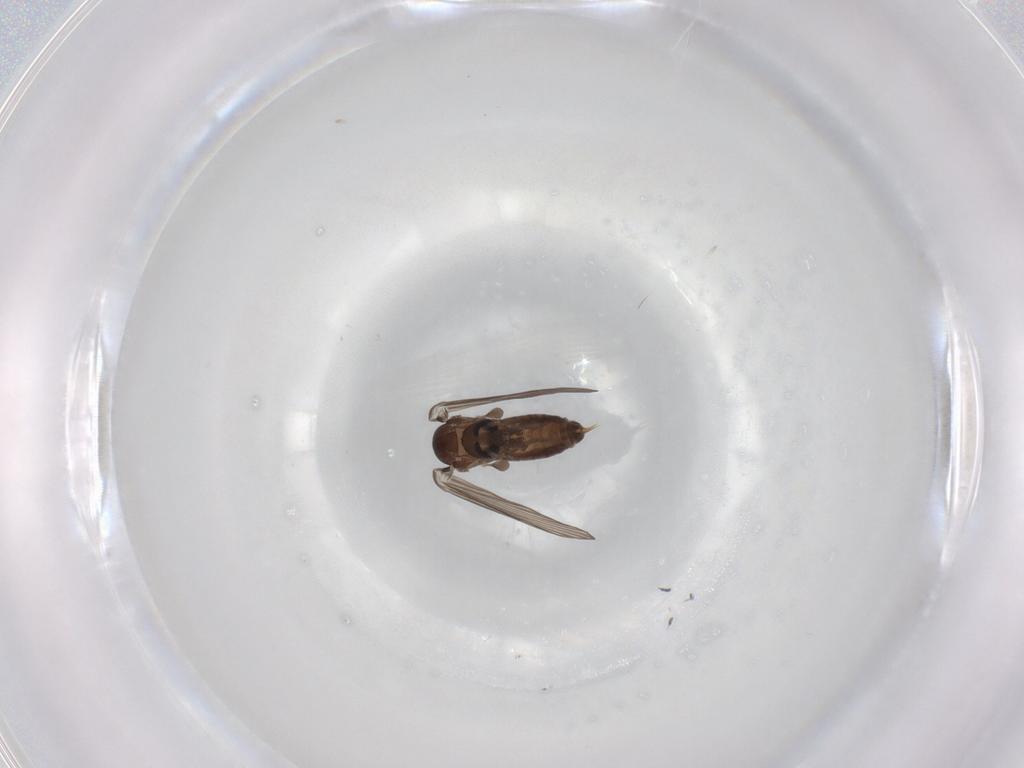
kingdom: Animalia
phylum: Arthropoda
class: Insecta
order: Diptera
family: Psychodidae
